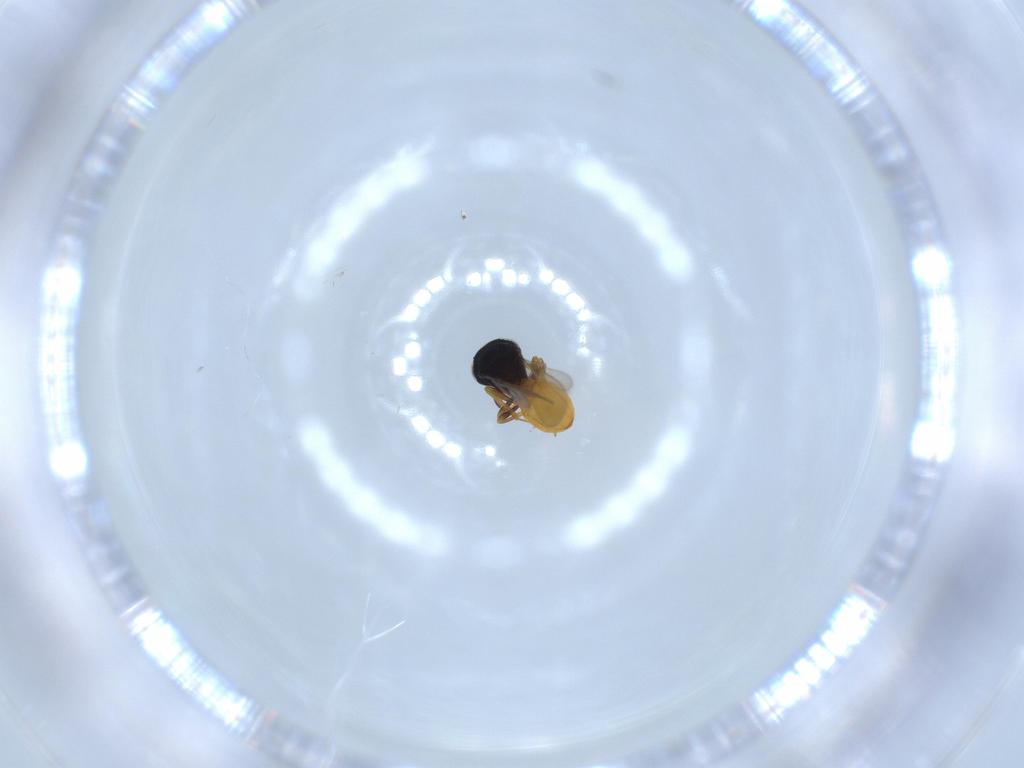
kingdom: Animalia
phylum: Arthropoda
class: Insecta
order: Hymenoptera
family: Scelionidae
